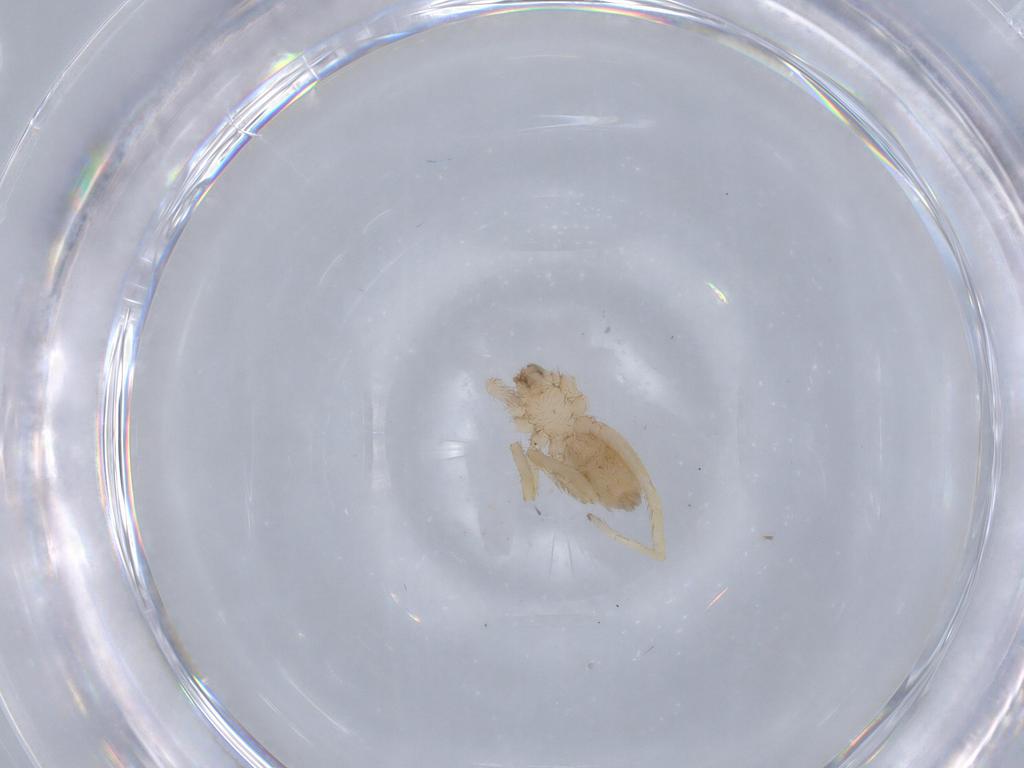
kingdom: Animalia
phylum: Arthropoda
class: Arachnida
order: Araneae
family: Oonopidae
